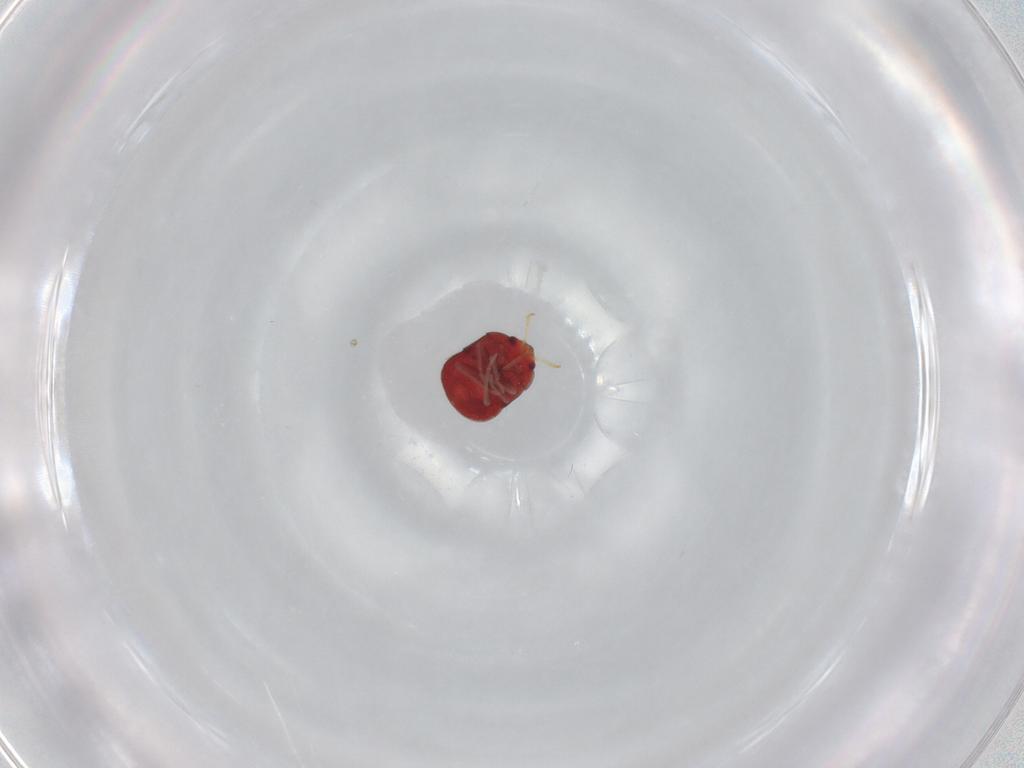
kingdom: Animalia
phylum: Arthropoda
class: Insecta
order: Hemiptera
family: Anthocoridae
